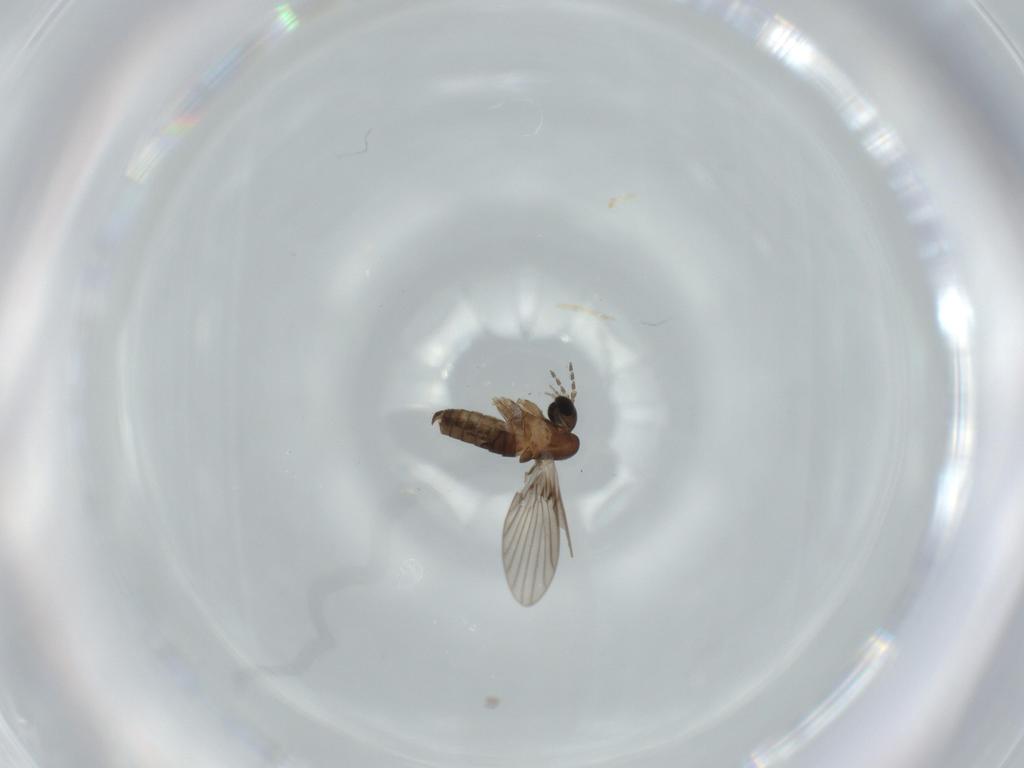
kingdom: Animalia
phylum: Arthropoda
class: Insecta
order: Diptera
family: Psychodidae
